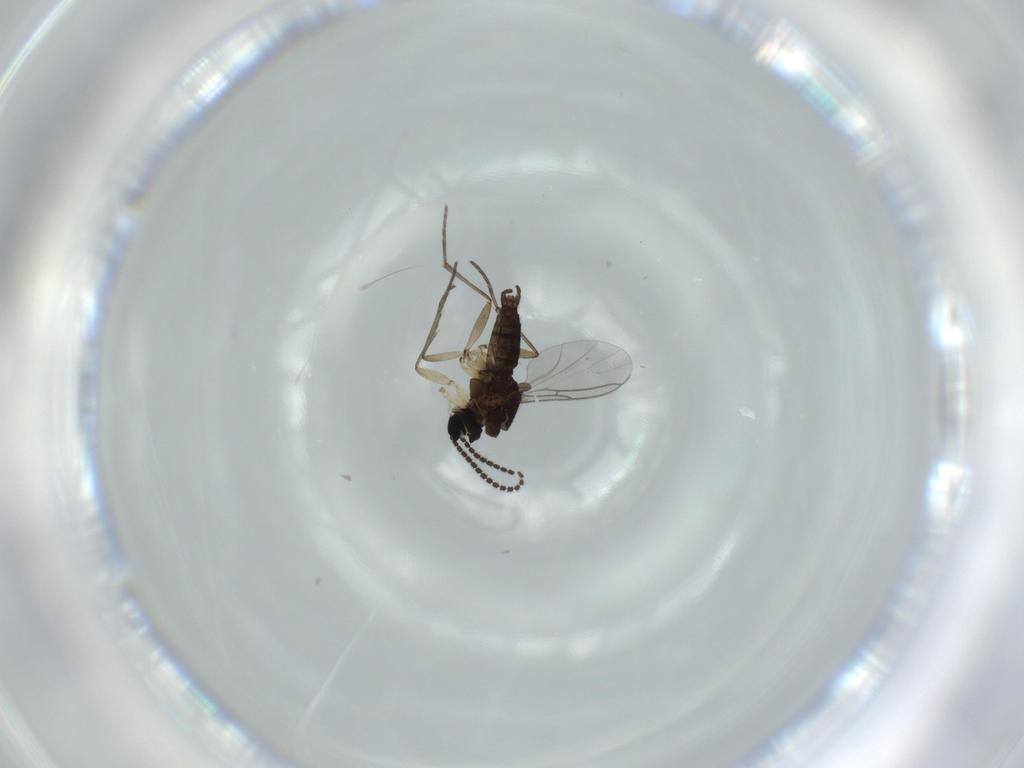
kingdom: Animalia
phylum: Arthropoda
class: Insecta
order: Diptera
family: Sciaridae
